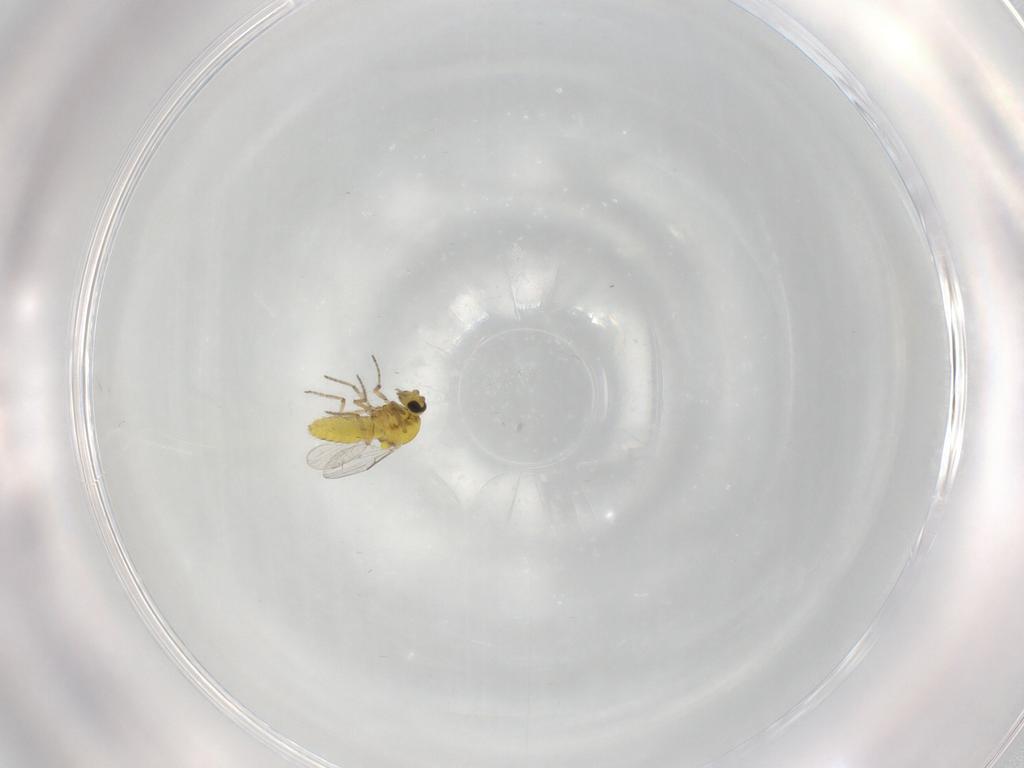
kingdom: Animalia
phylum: Arthropoda
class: Insecta
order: Diptera
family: Ceratopogonidae
